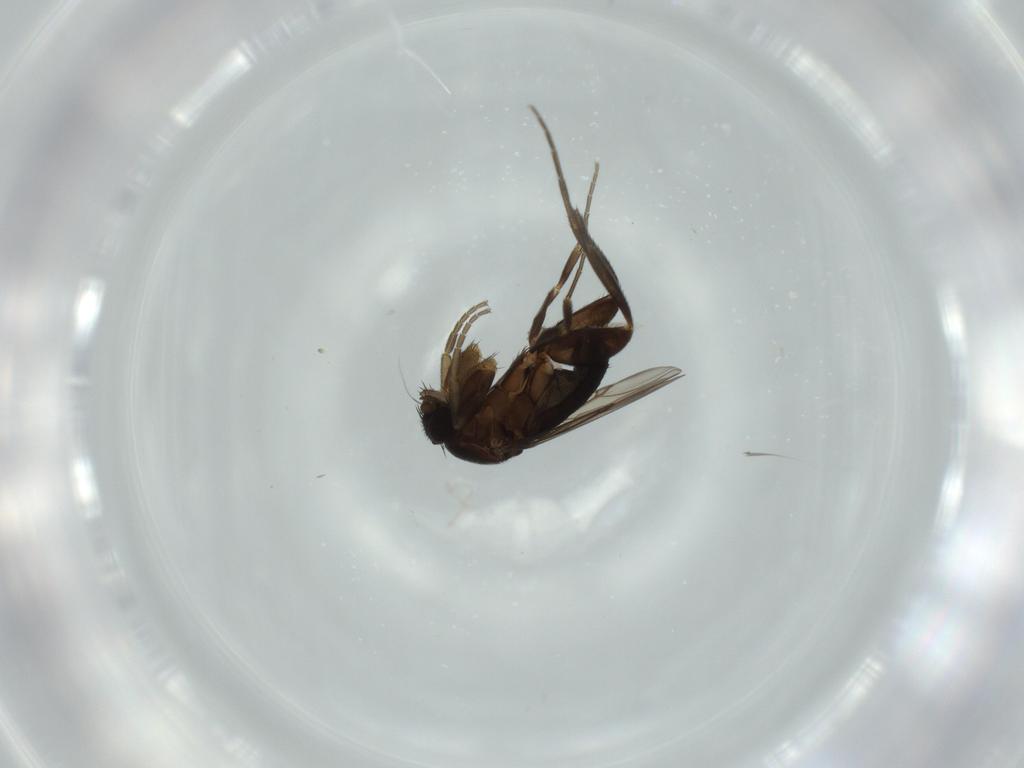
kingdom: Animalia
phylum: Arthropoda
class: Insecta
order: Diptera
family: Phoridae
